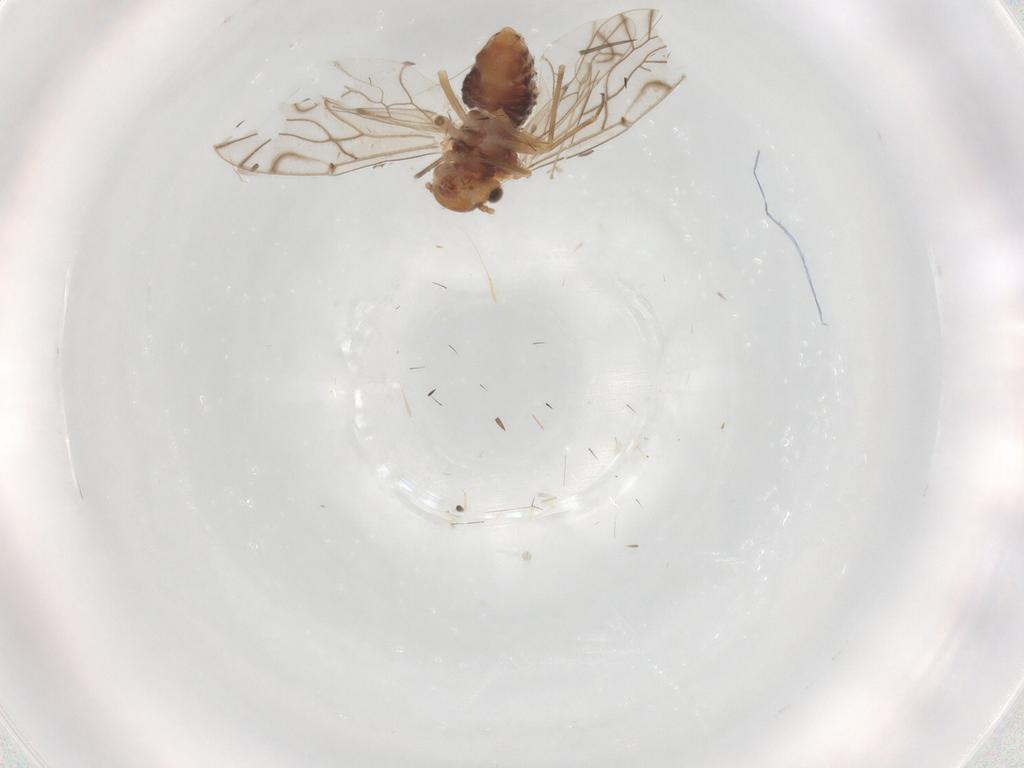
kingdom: Animalia
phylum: Arthropoda
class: Insecta
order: Psocodea
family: Lachesillidae
